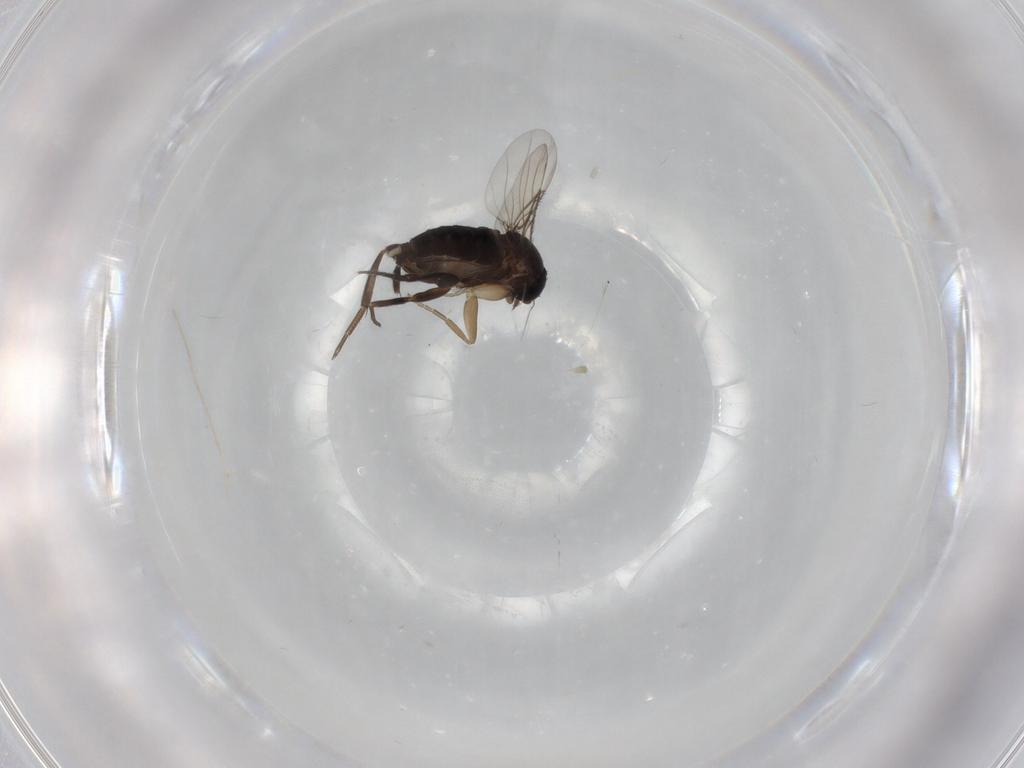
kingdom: Animalia
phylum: Arthropoda
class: Insecta
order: Diptera
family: Phoridae
